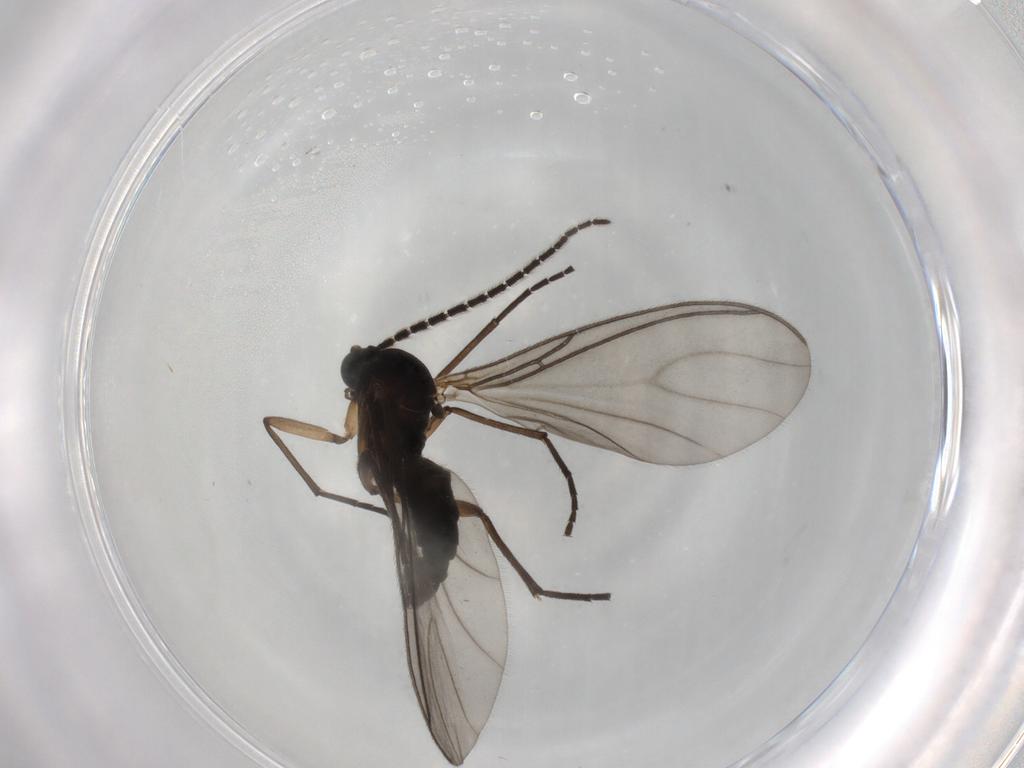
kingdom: Animalia
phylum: Arthropoda
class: Insecta
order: Diptera
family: Sciaridae
